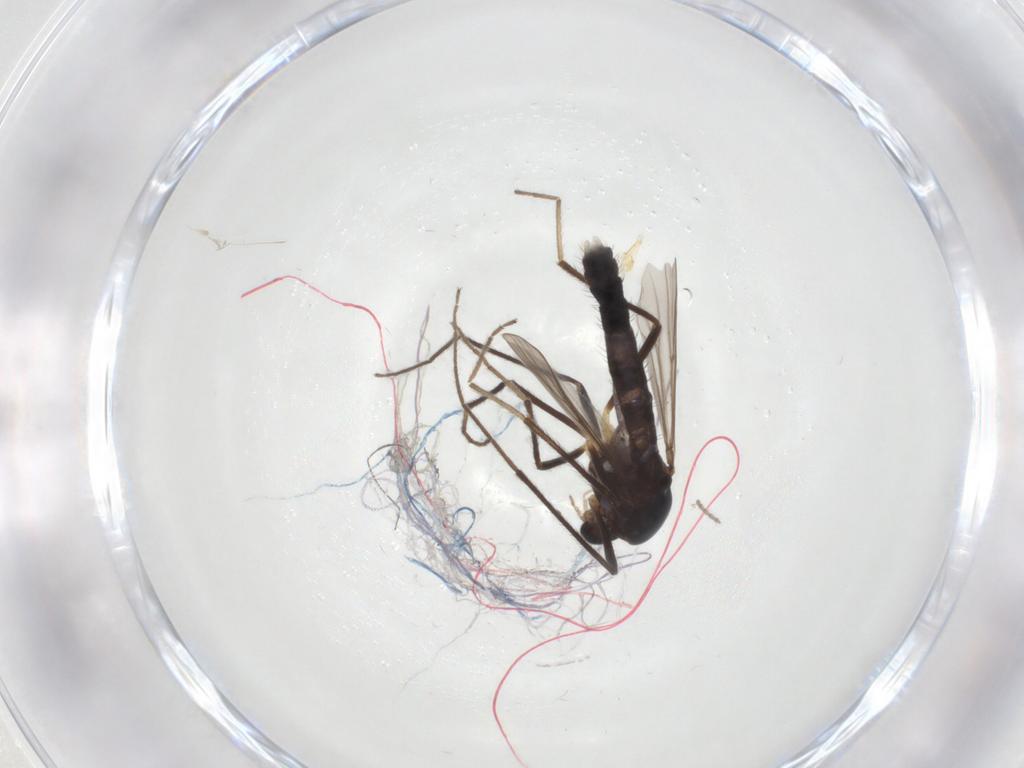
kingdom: Animalia
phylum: Arthropoda
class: Insecta
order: Diptera
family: Chironomidae
